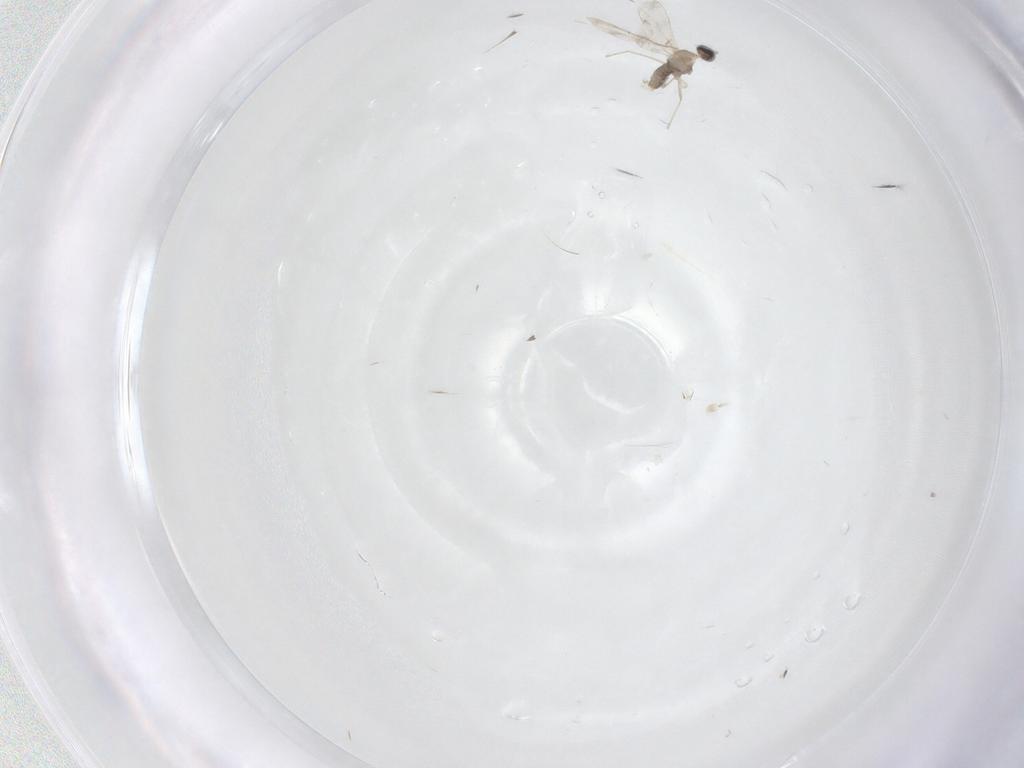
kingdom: Animalia
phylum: Arthropoda
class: Insecta
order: Diptera
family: Cecidomyiidae
